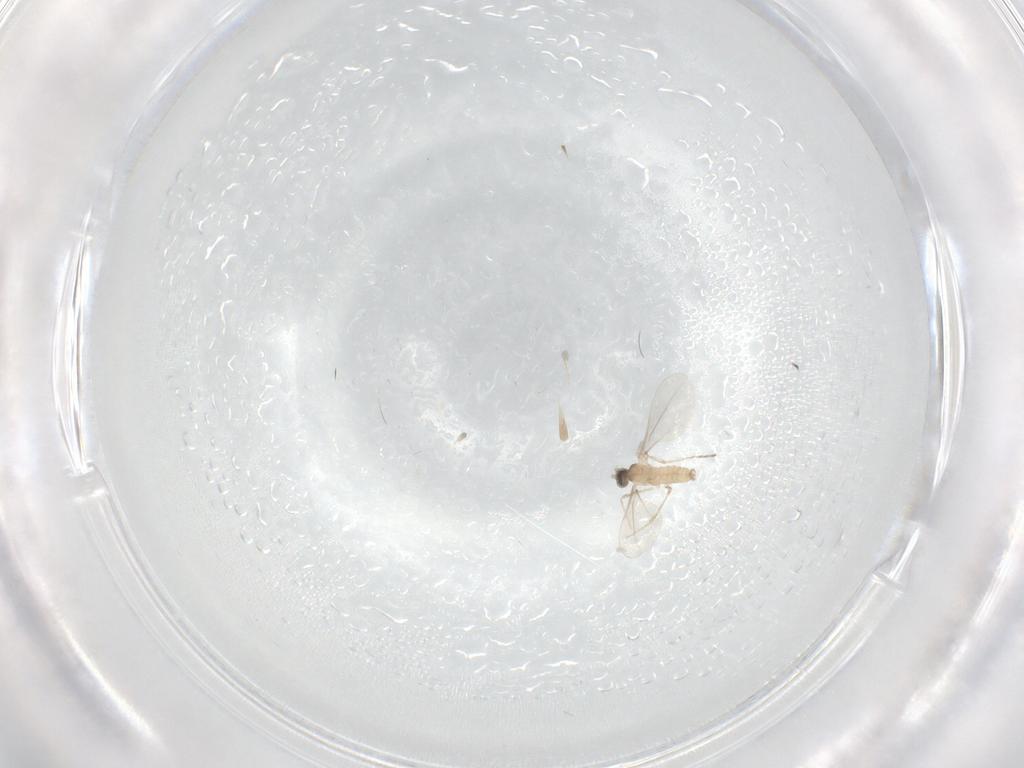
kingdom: Animalia
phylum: Arthropoda
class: Insecta
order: Diptera
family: Cecidomyiidae
